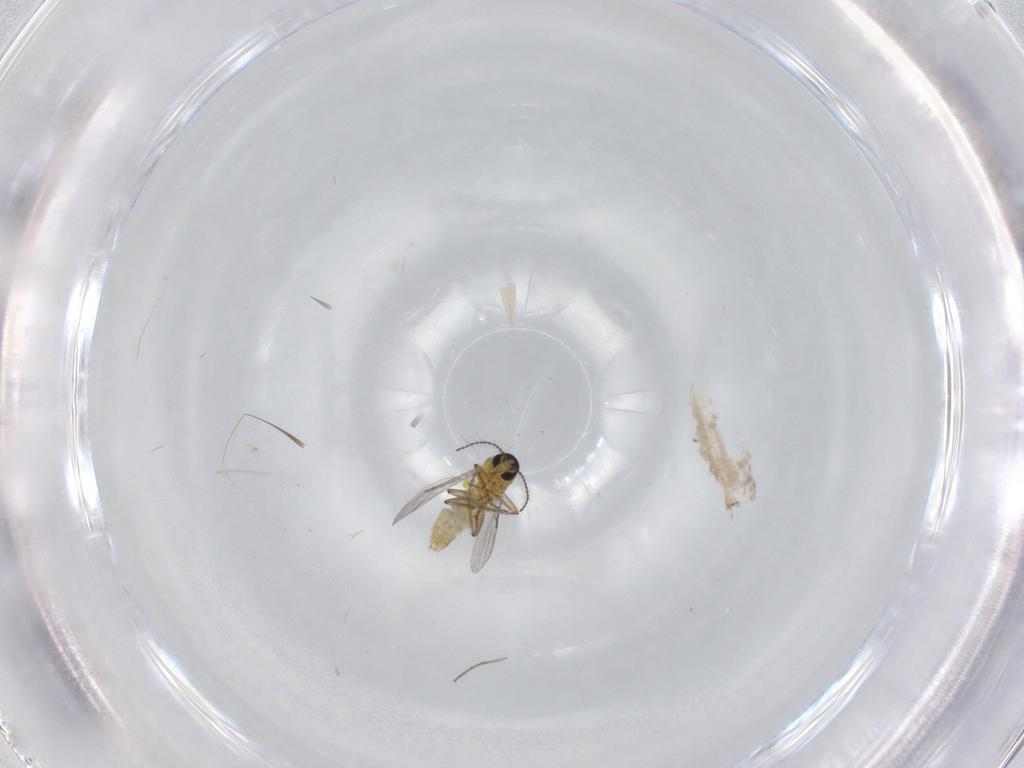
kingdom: Animalia
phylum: Arthropoda
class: Insecta
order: Diptera
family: Ceratopogonidae
